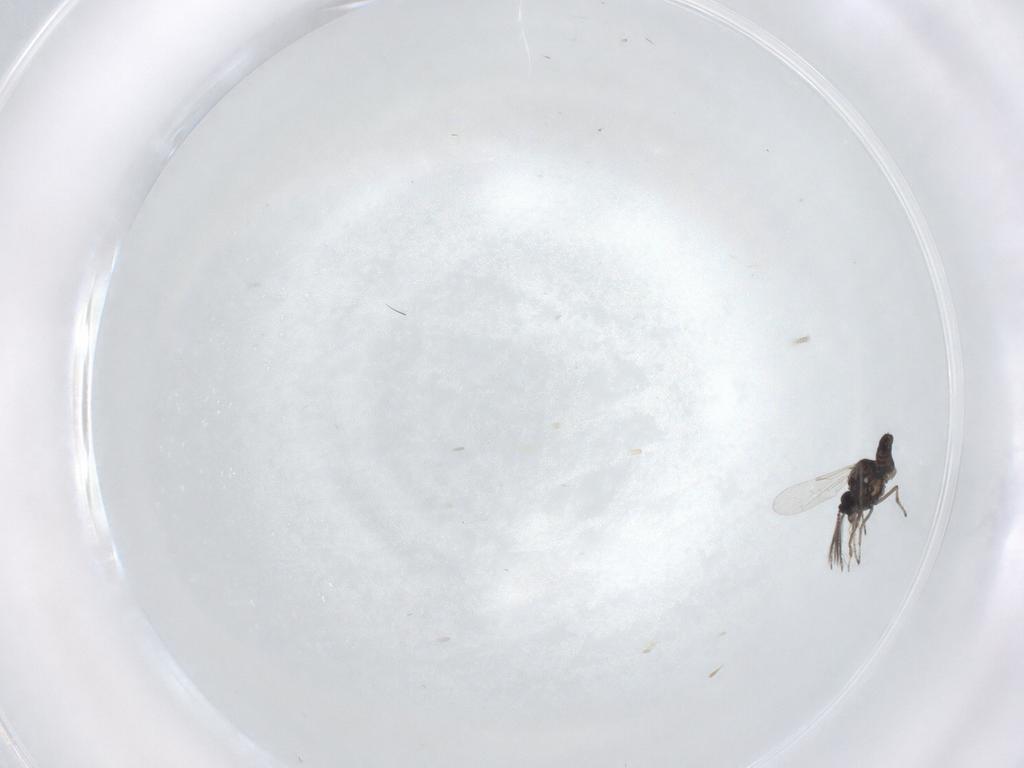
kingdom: Animalia
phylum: Arthropoda
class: Insecta
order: Diptera
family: Ceratopogonidae
